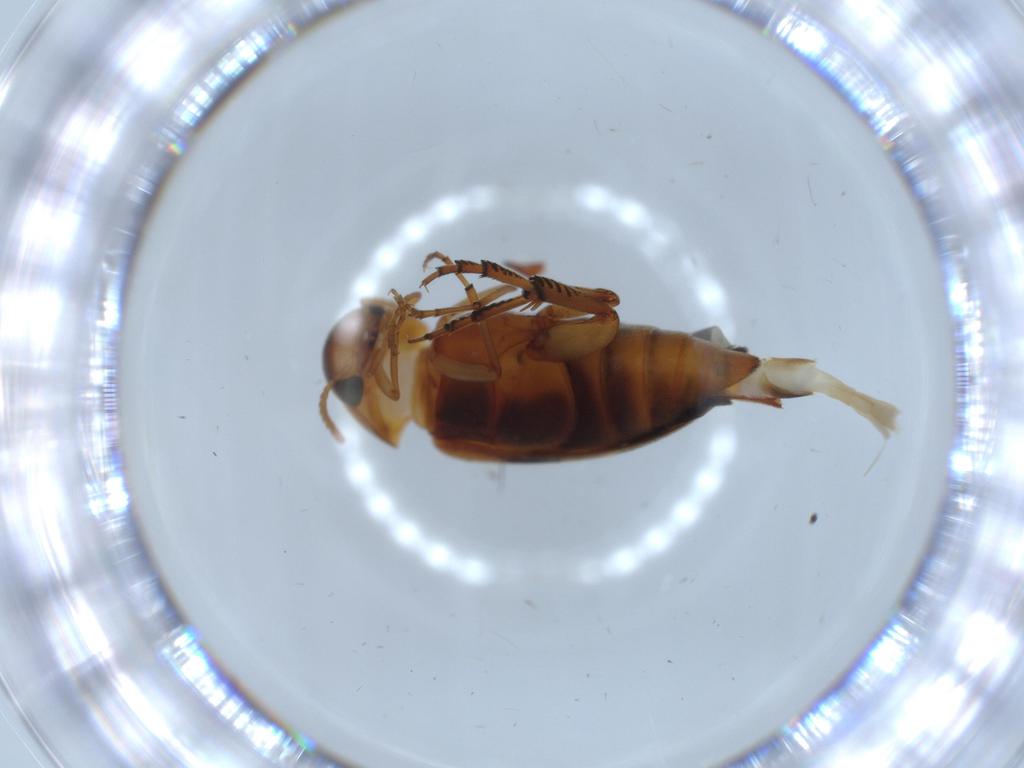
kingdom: Animalia
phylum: Arthropoda
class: Insecta
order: Coleoptera
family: Mordellidae
